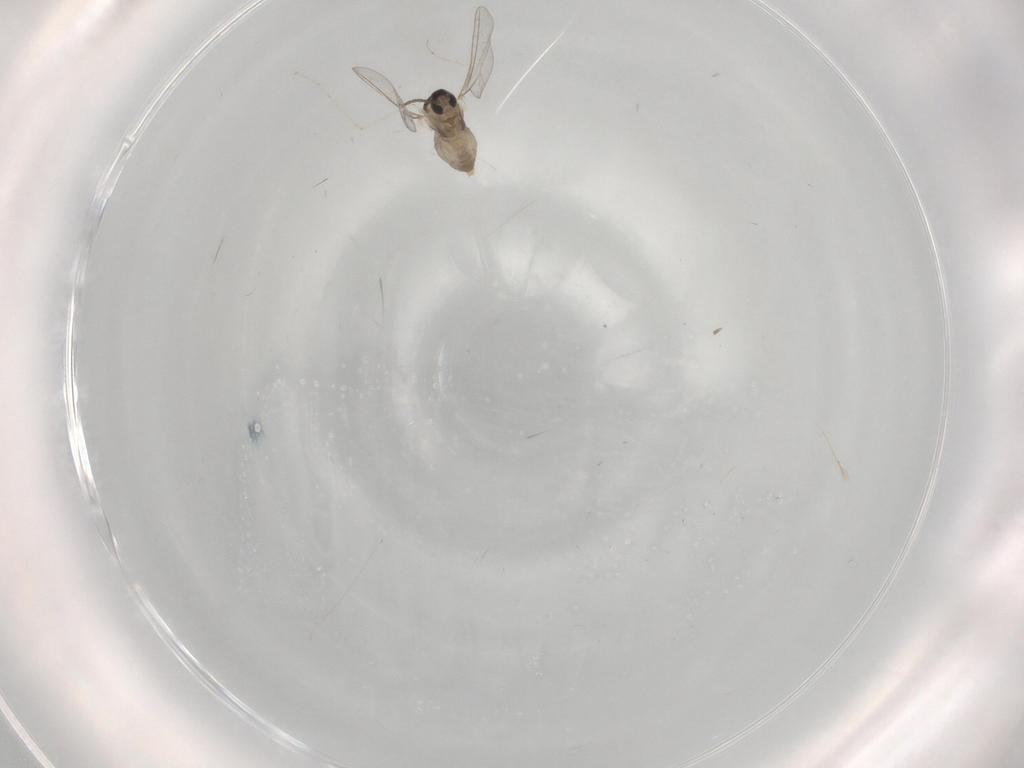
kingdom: Animalia
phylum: Arthropoda
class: Insecta
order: Diptera
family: Cecidomyiidae
